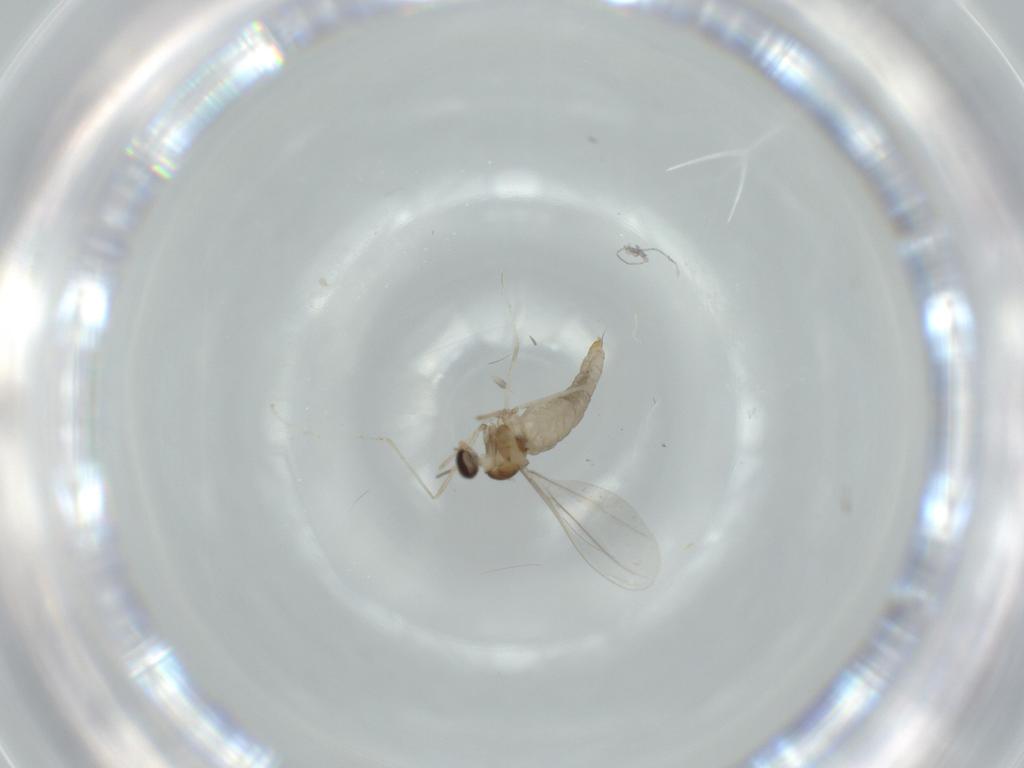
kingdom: Animalia
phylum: Arthropoda
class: Insecta
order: Diptera
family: Cecidomyiidae
